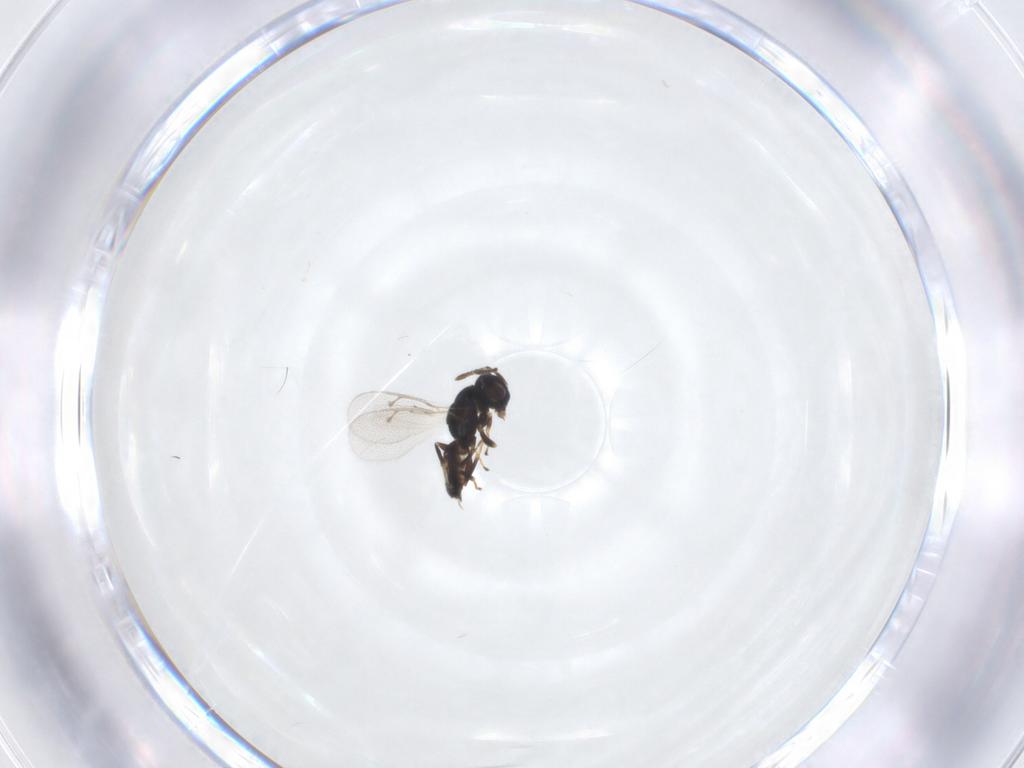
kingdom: Animalia
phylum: Arthropoda
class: Insecta
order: Hymenoptera
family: Pteromalidae
